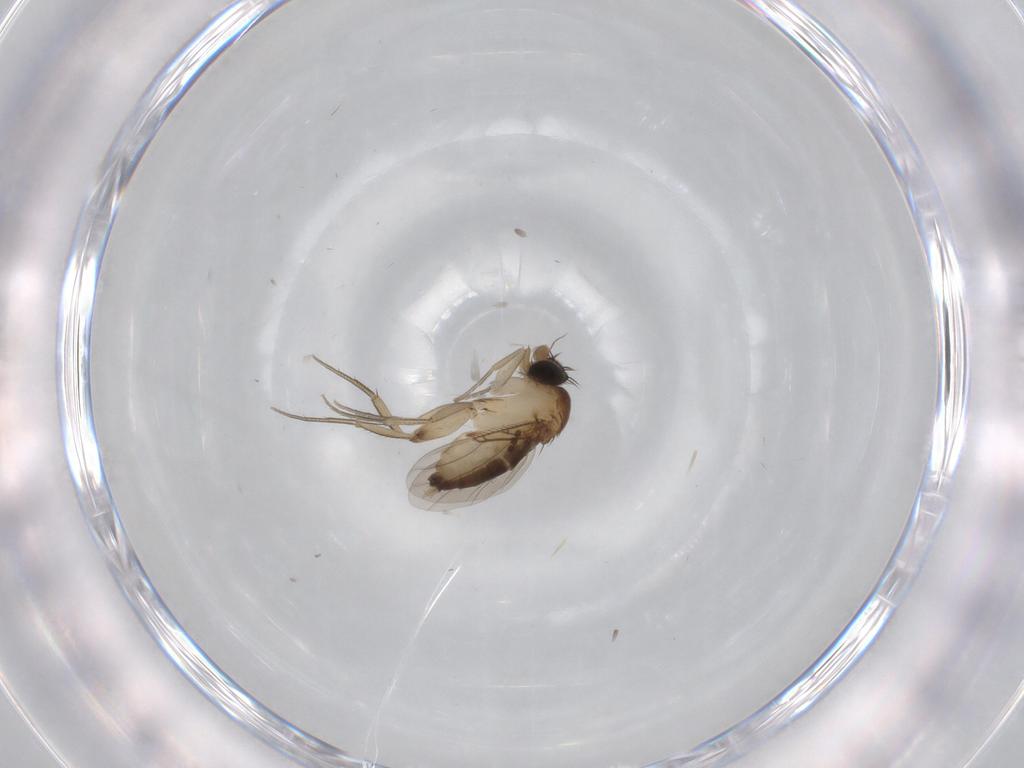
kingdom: Animalia
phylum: Arthropoda
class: Insecta
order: Diptera
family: Phoridae
